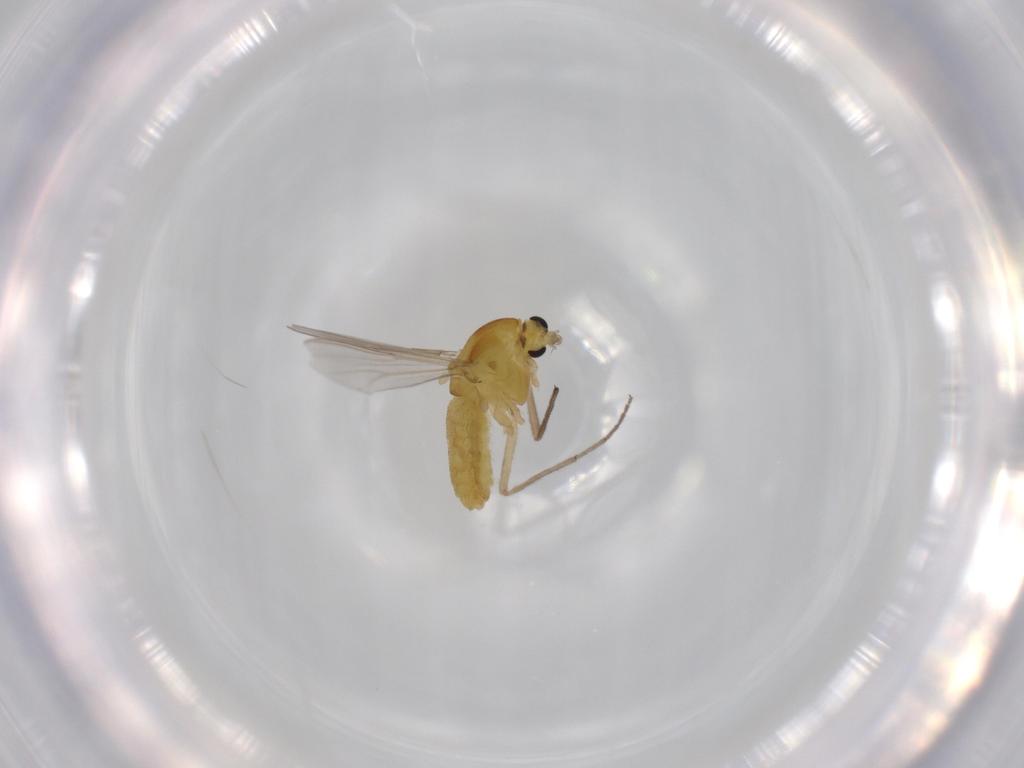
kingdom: Animalia
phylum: Arthropoda
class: Insecta
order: Diptera
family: Chironomidae
